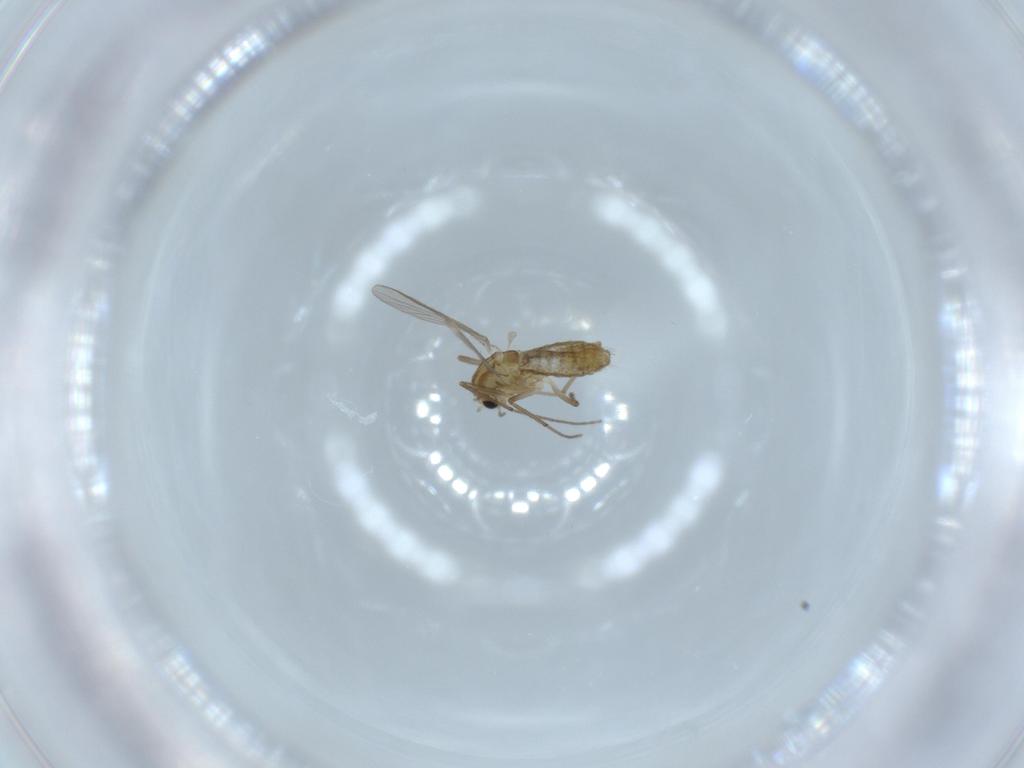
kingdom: Animalia
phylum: Arthropoda
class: Insecta
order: Diptera
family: Chironomidae
